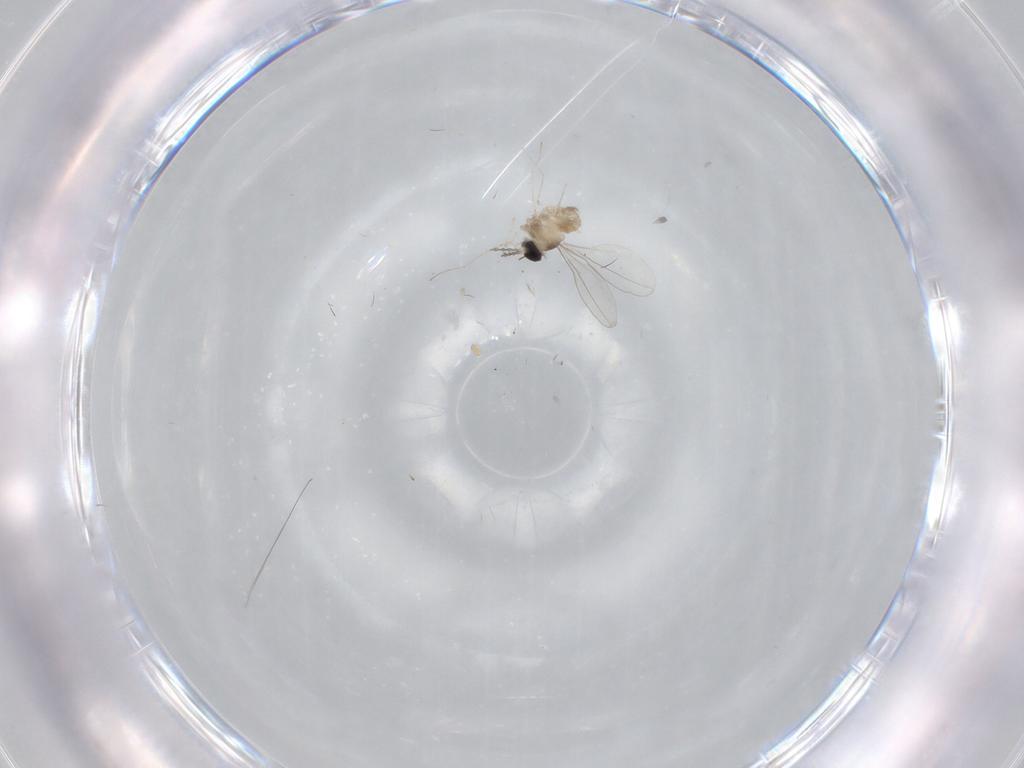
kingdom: Animalia
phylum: Arthropoda
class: Insecta
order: Diptera
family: Cecidomyiidae
